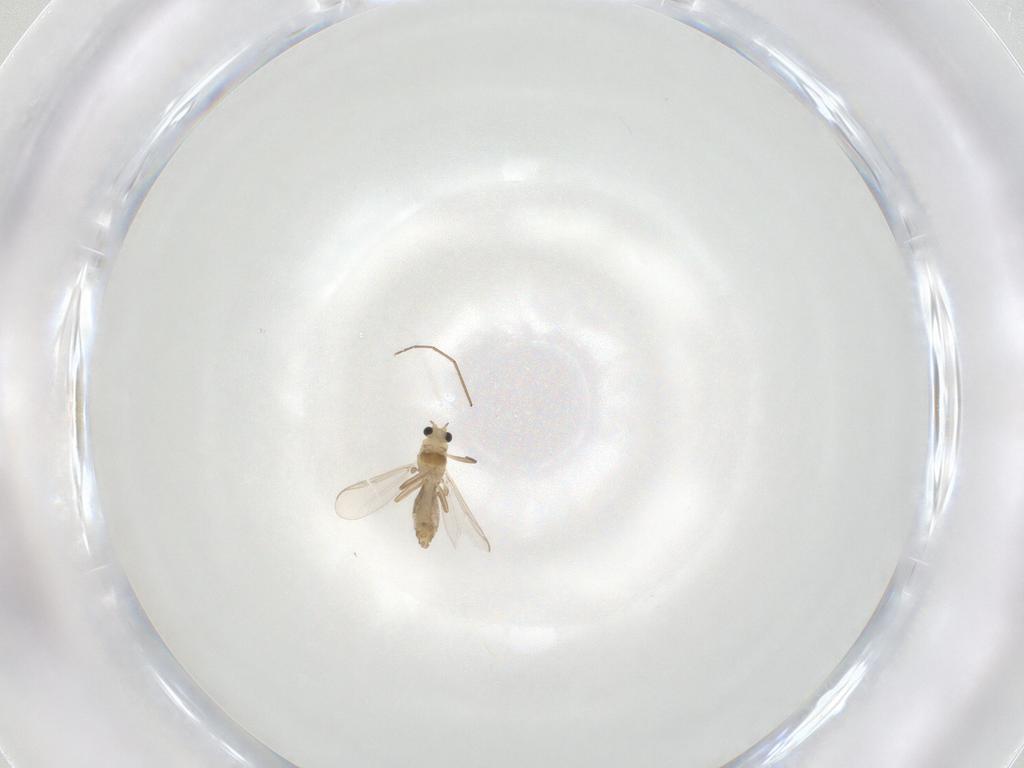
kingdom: Animalia
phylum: Arthropoda
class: Insecta
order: Diptera
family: Chironomidae
